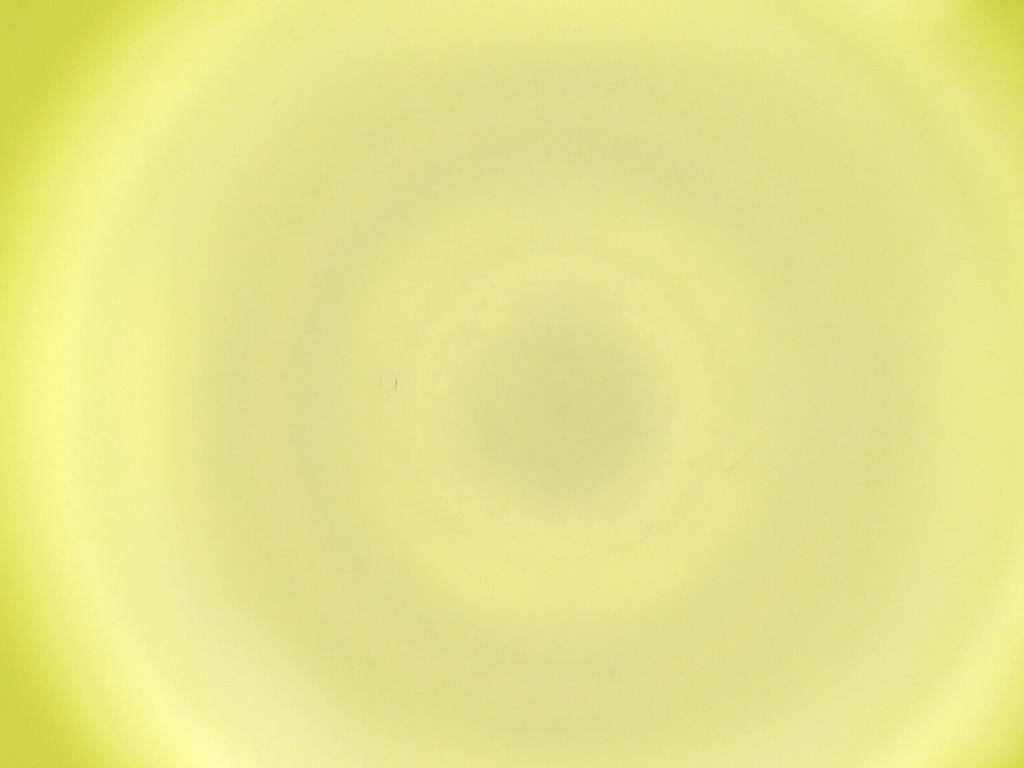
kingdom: Animalia
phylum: Arthropoda
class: Insecta
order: Diptera
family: Cecidomyiidae
